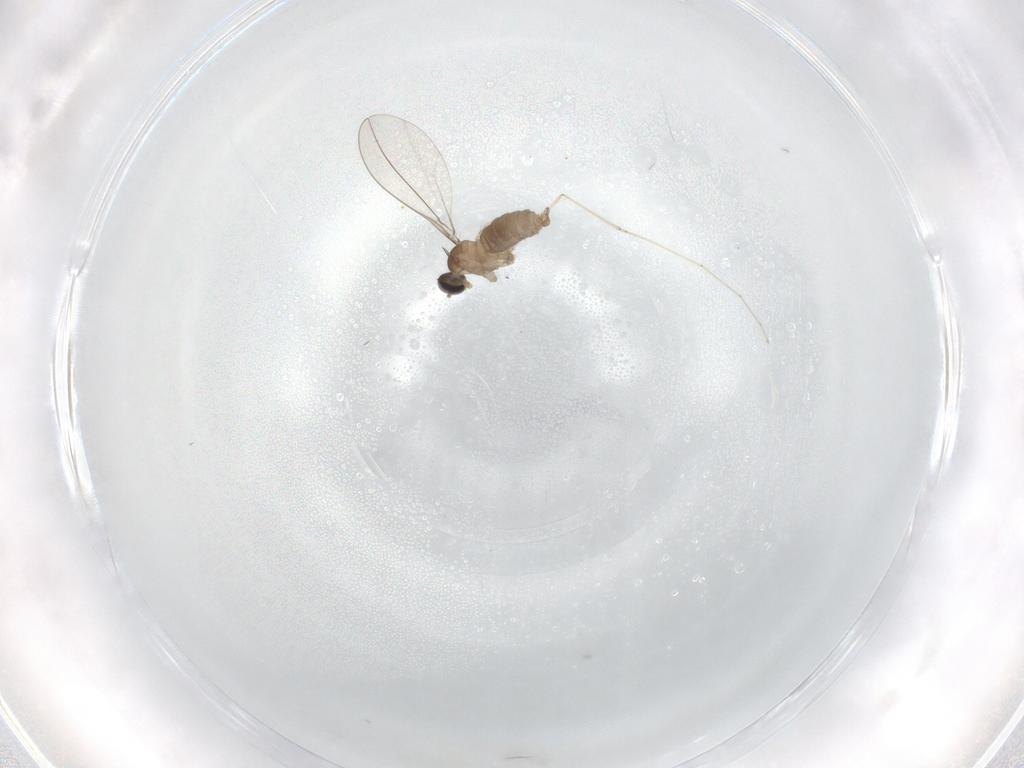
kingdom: Animalia
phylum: Arthropoda
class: Insecta
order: Diptera
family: Cecidomyiidae
